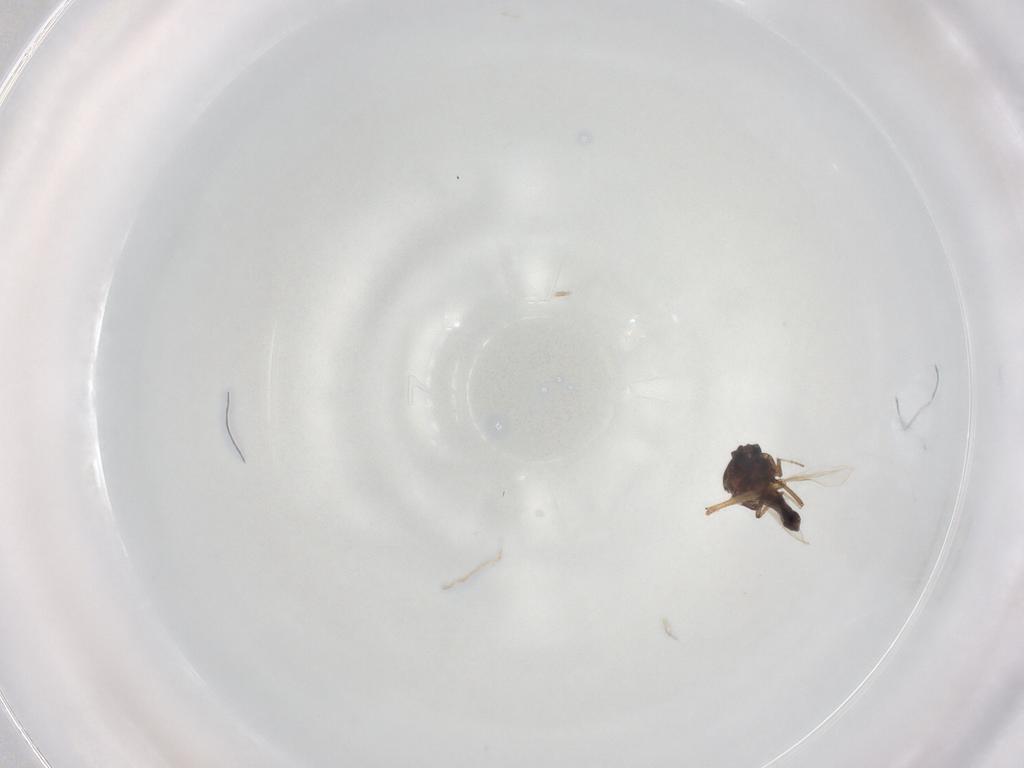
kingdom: Animalia
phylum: Arthropoda
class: Insecta
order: Diptera
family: Ceratopogonidae
